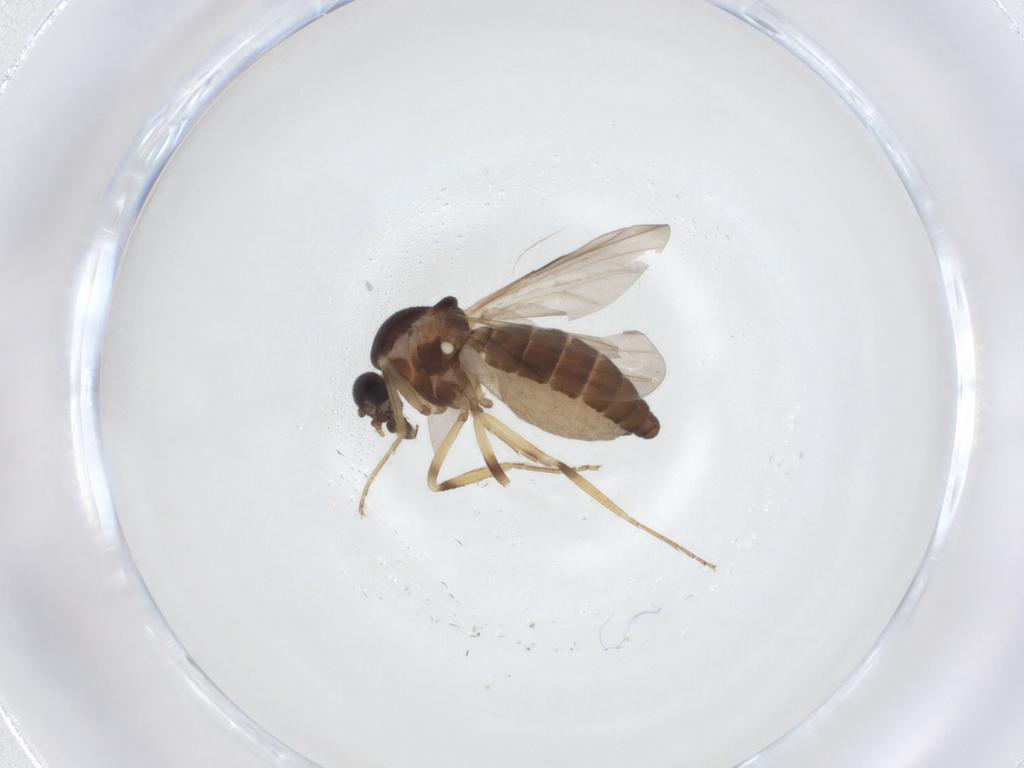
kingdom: Animalia
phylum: Arthropoda
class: Insecta
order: Diptera
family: Ceratopogonidae
